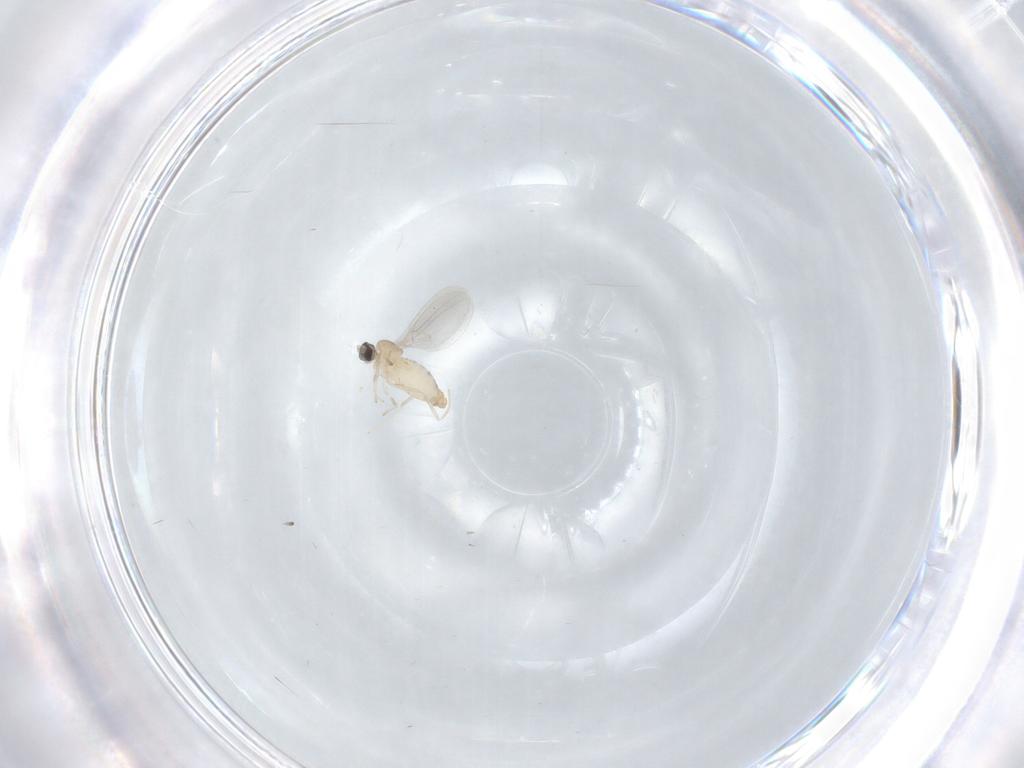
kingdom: Animalia
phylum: Arthropoda
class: Insecta
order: Diptera
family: Cecidomyiidae
